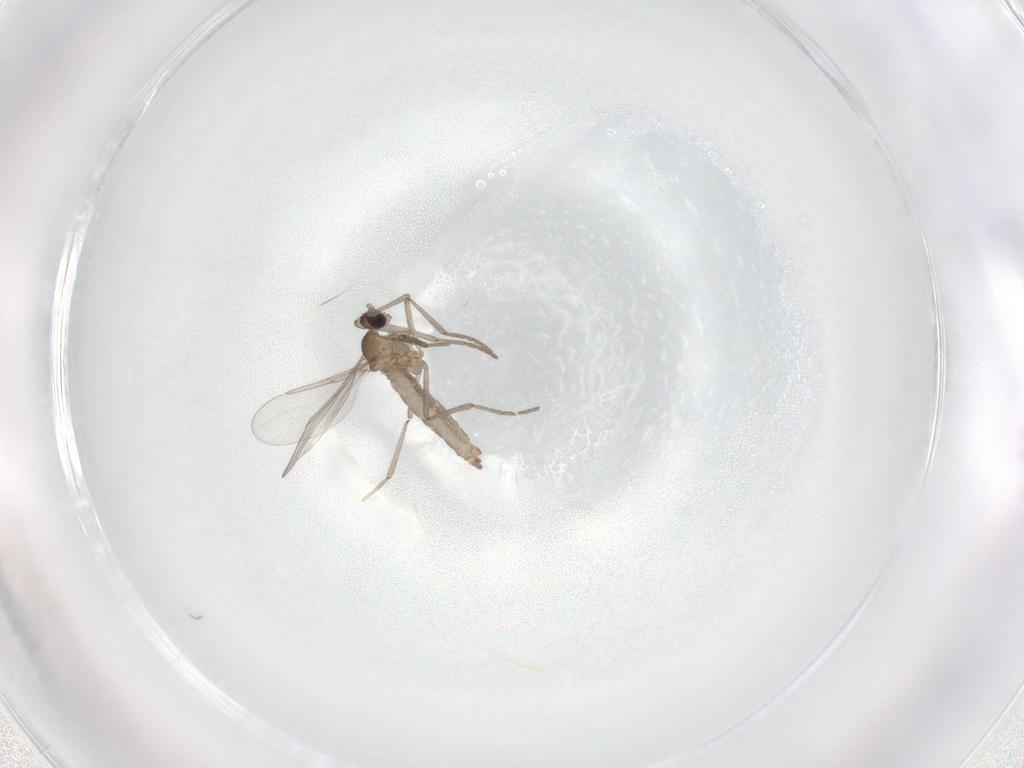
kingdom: Animalia
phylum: Arthropoda
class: Insecta
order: Diptera
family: Cecidomyiidae
